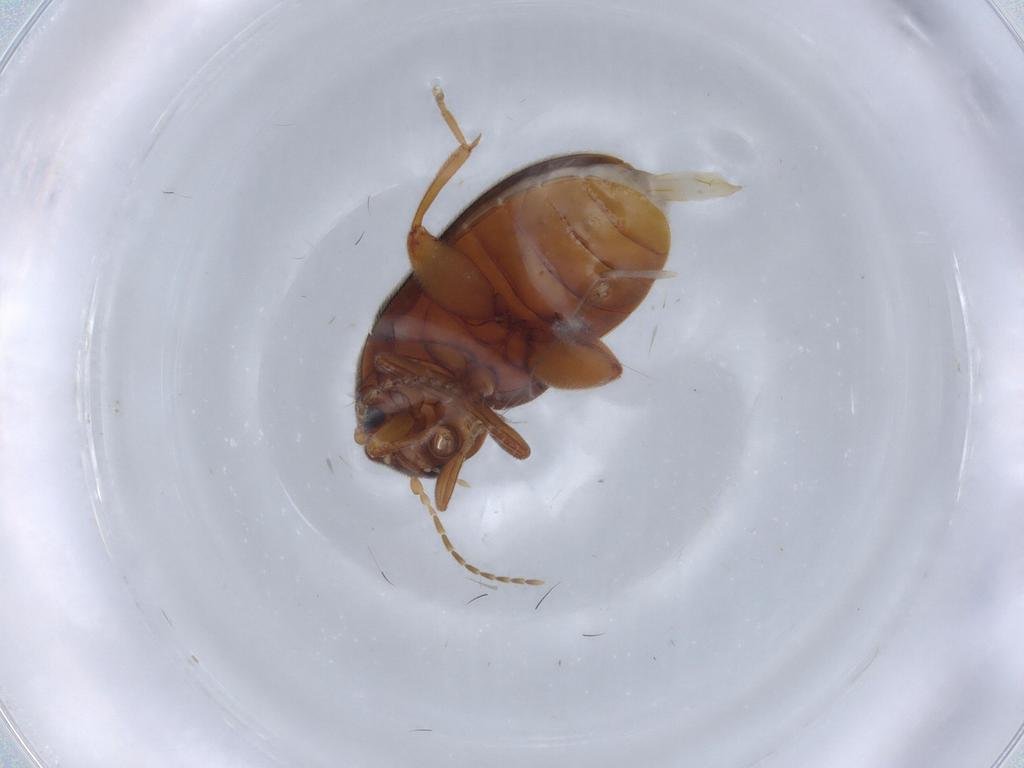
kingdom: Animalia
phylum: Arthropoda
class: Insecta
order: Coleoptera
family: Scirtidae
